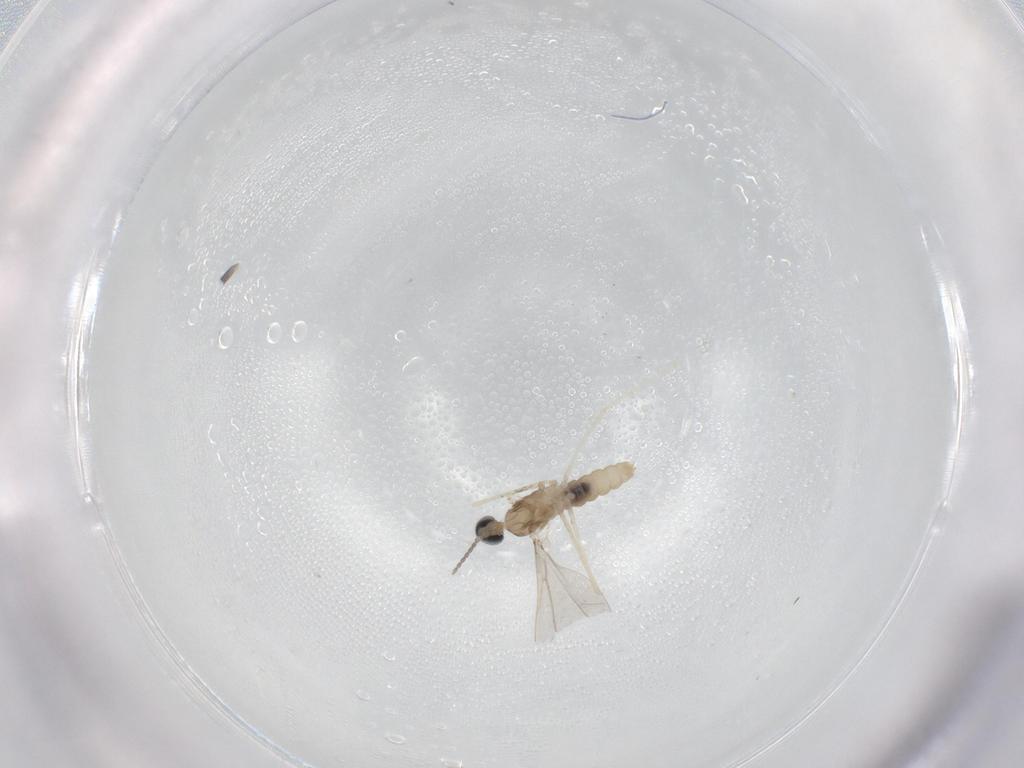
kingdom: Animalia
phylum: Arthropoda
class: Insecta
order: Diptera
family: Cecidomyiidae
